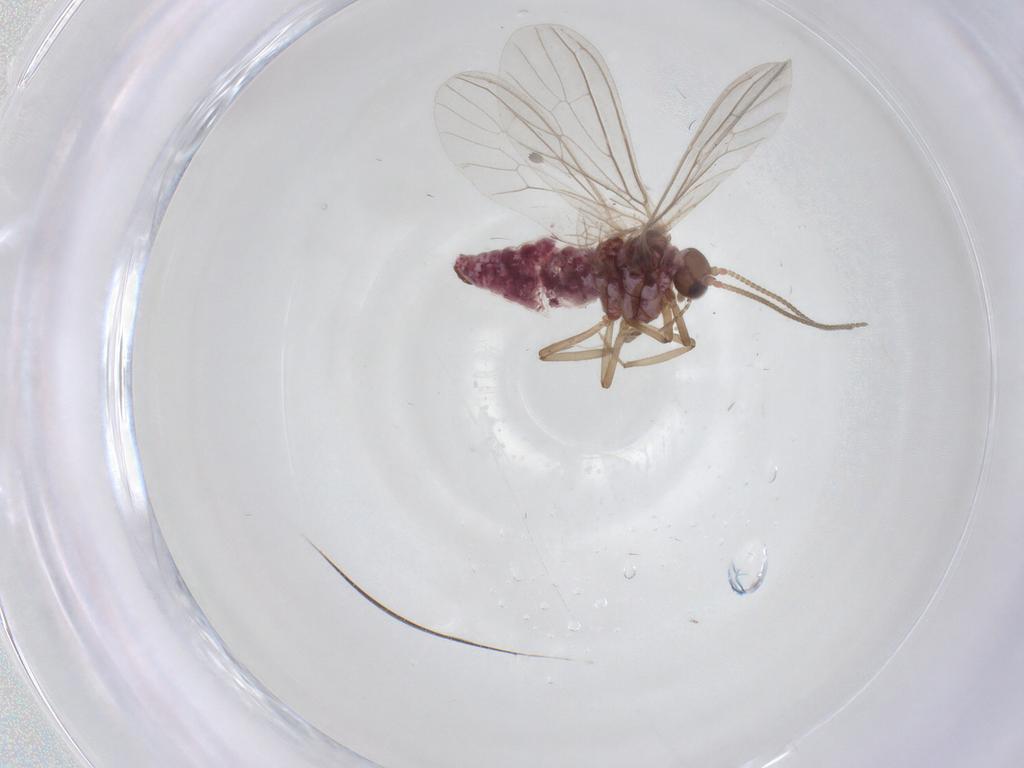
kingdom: Animalia
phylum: Arthropoda
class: Insecta
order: Neuroptera
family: Coniopterygidae
